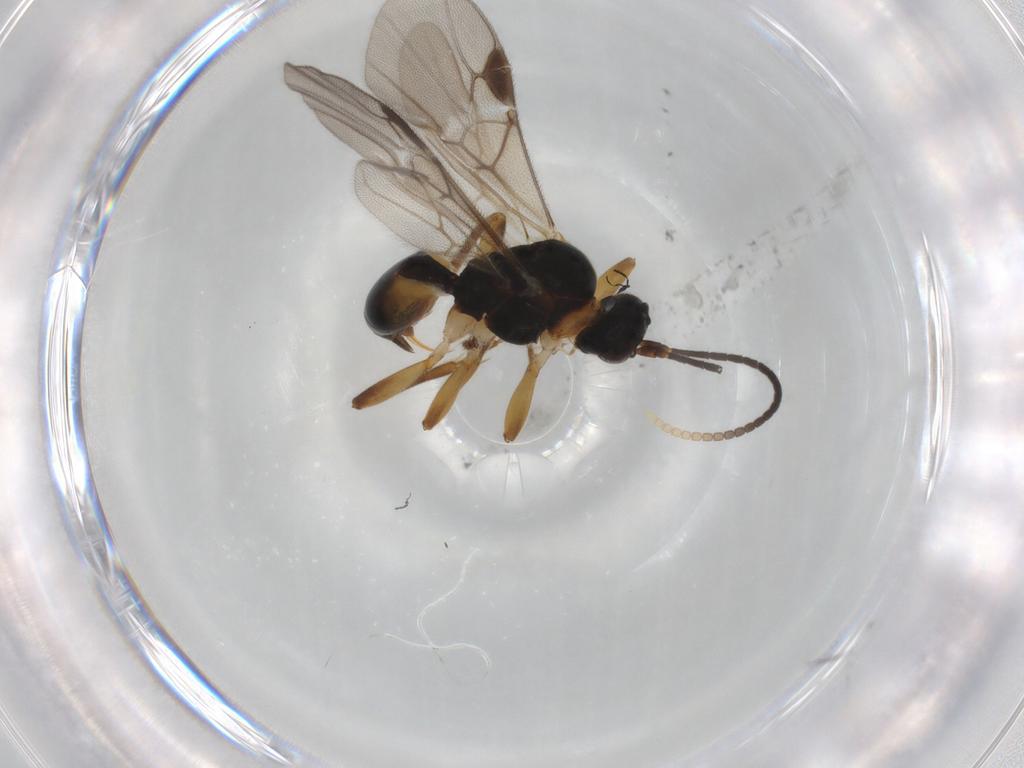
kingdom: Animalia
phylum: Arthropoda
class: Insecta
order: Hymenoptera
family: Braconidae
